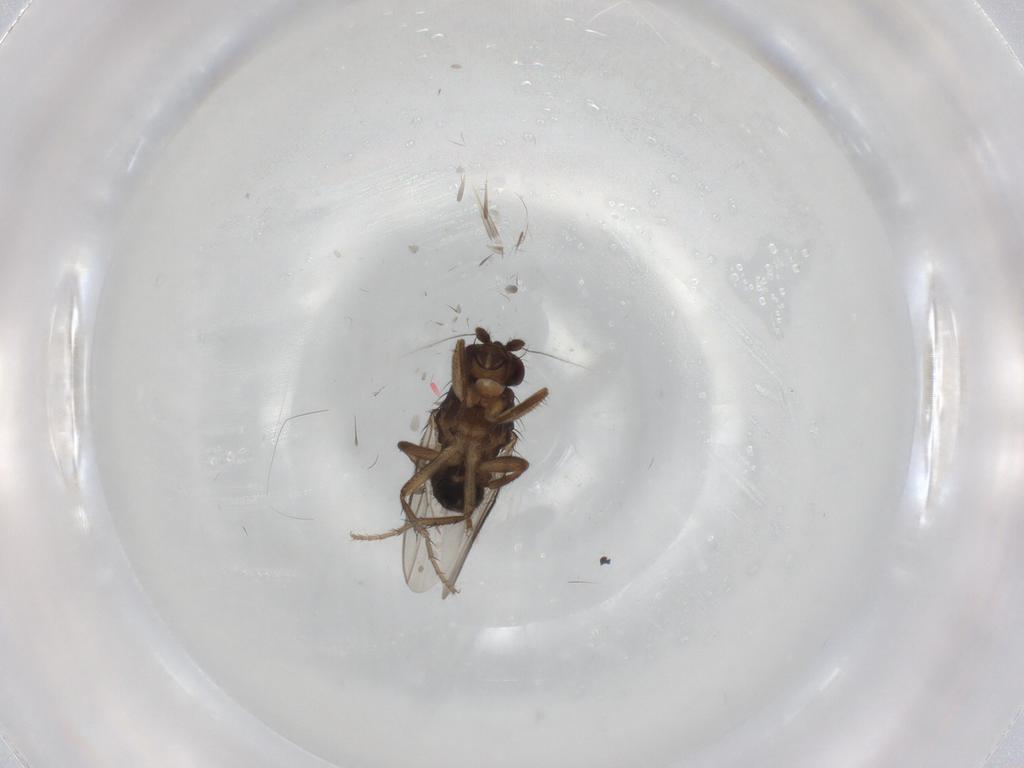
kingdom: Animalia
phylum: Arthropoda
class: Insecta
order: Diptera
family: Sphaeroceridae
